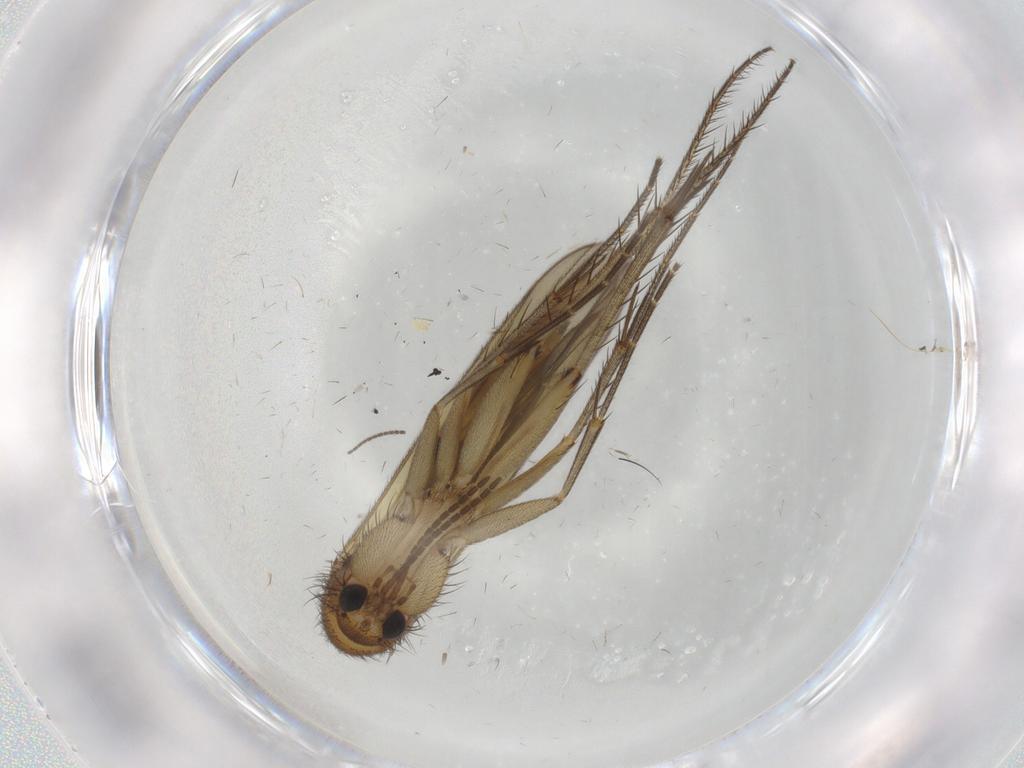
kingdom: Animalia
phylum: Arthropoda
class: Insecta
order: Diptera
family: Mycetophilidae
